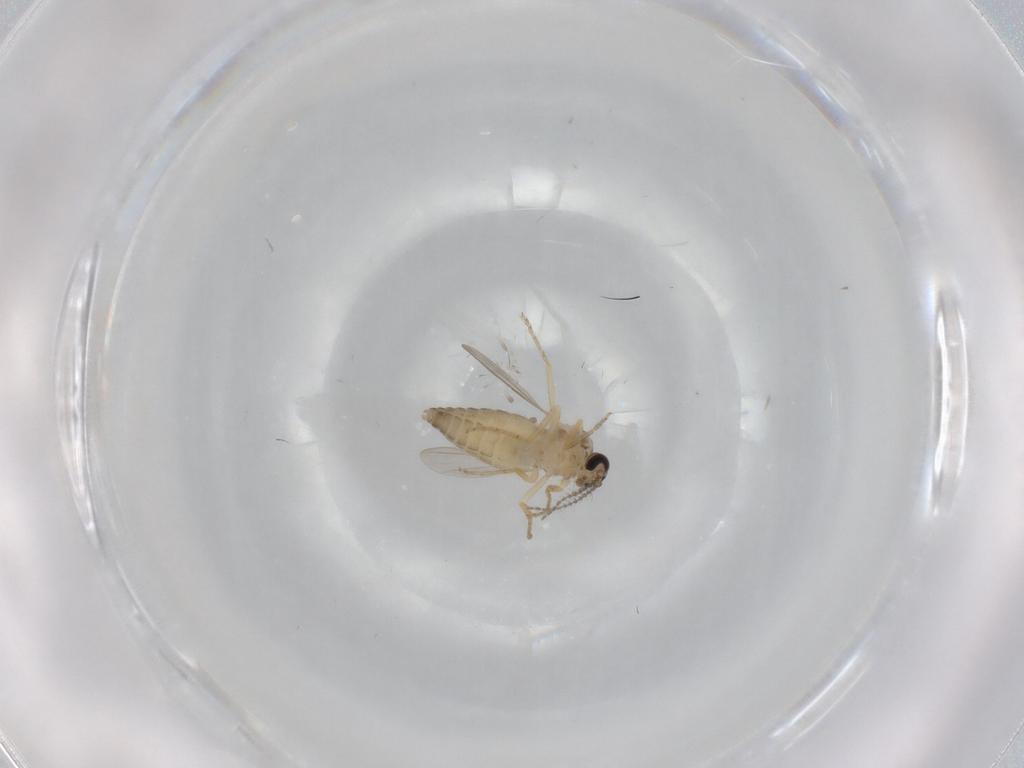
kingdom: Animalia
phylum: Arthropoda
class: Insecta
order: Diptera
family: Ceratopogonidae
